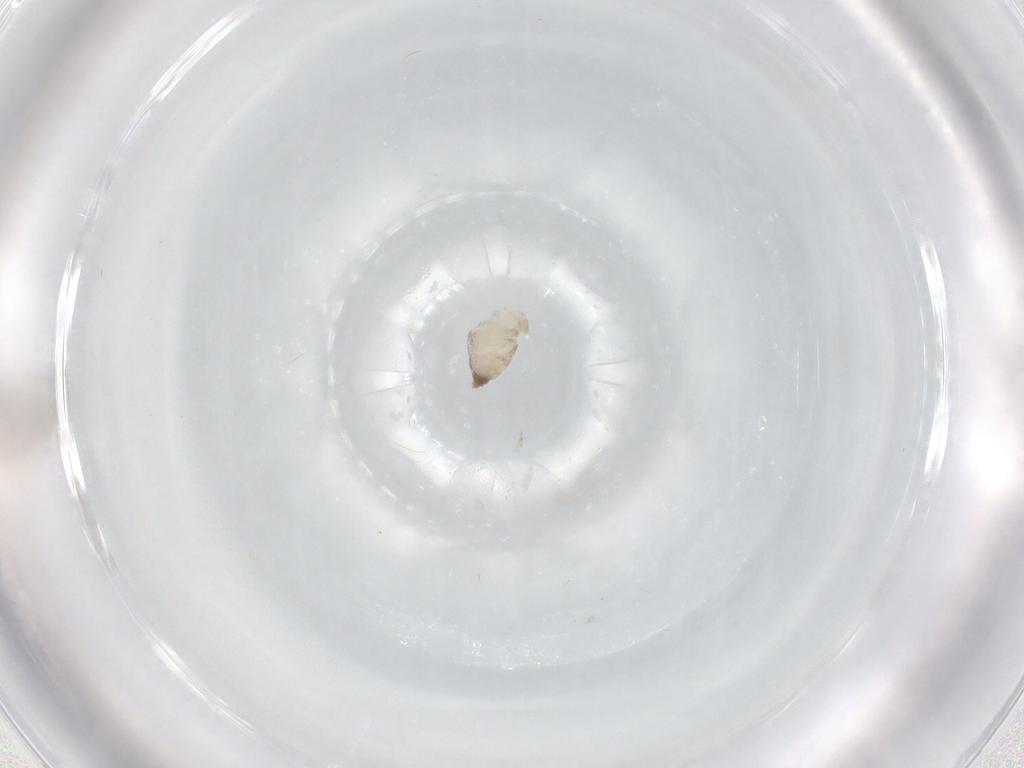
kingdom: Animalia
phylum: Arthropoda
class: Insecta
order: Diptera
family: Cecidomyiidae
